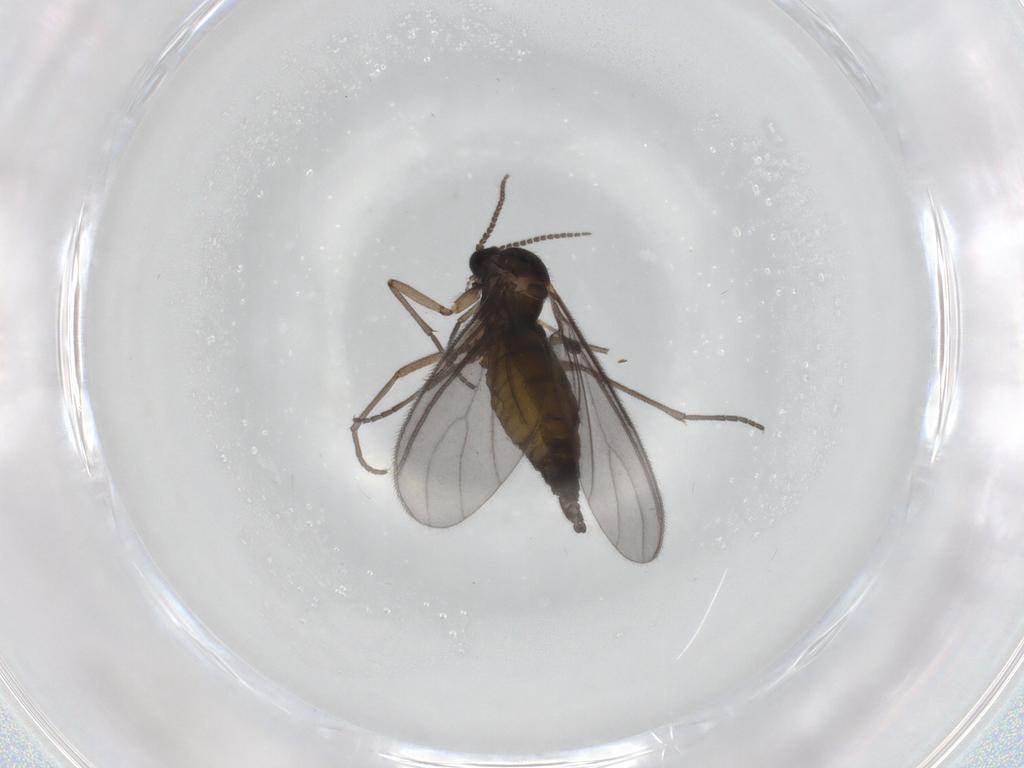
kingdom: Animalia
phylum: Arthropoda
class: Insecta
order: Diptera
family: Sciaridae
